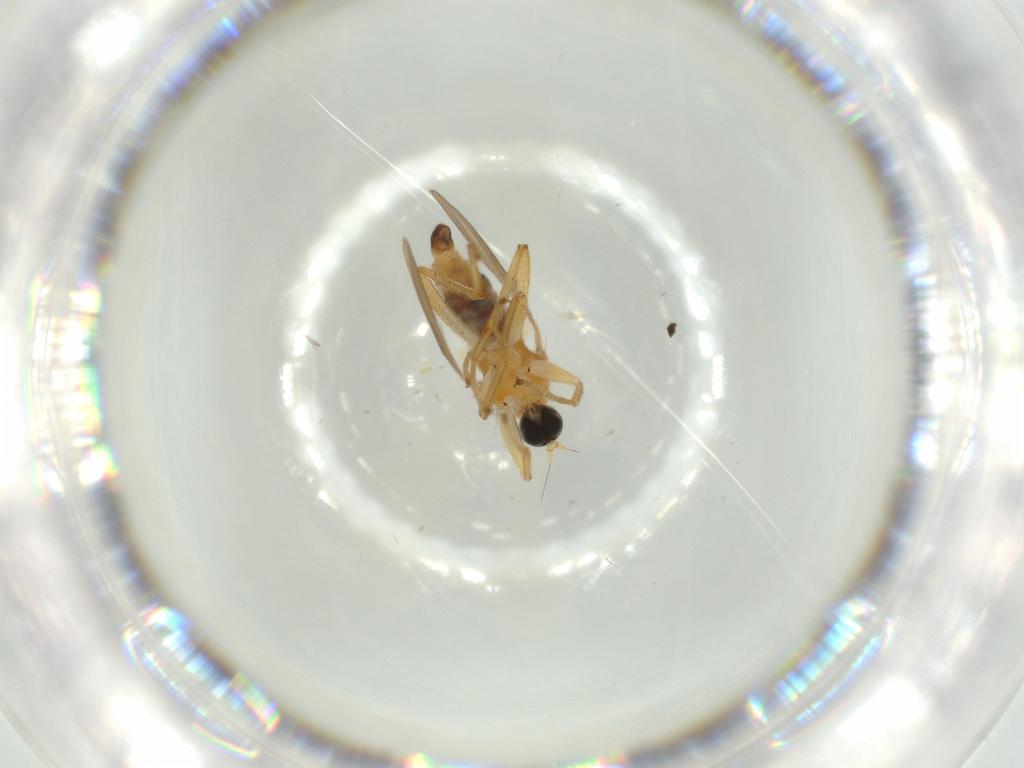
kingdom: Animalia
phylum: Arthropoda
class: Insecta
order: Diptera
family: Hybotidae
